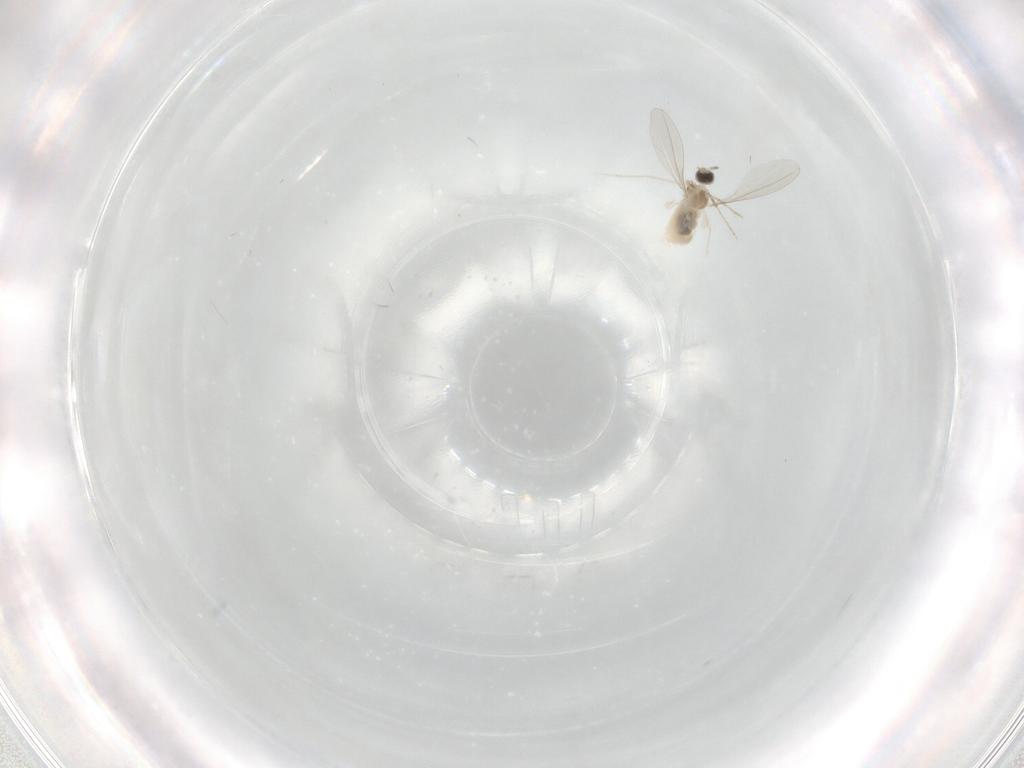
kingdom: Animalia
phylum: Arthropoda
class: Insecta
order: Diptera
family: Cecidomyiidae
